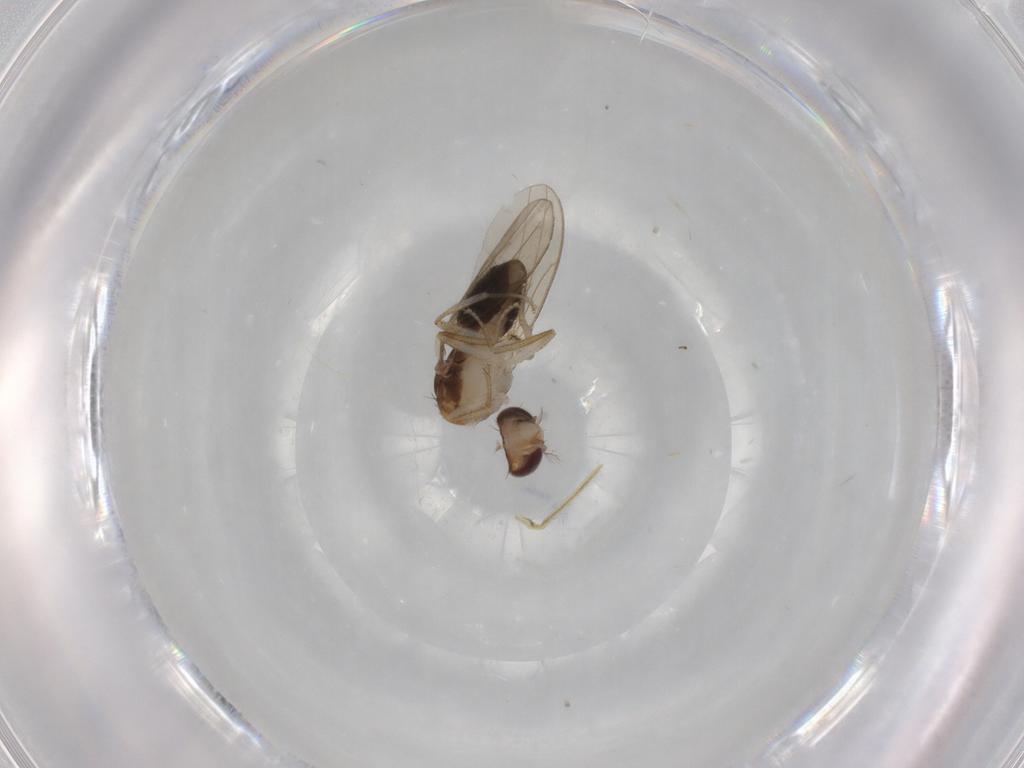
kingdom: Animalia
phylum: Arthropoda
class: Insecta
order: Diptera
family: Drosophilidae
